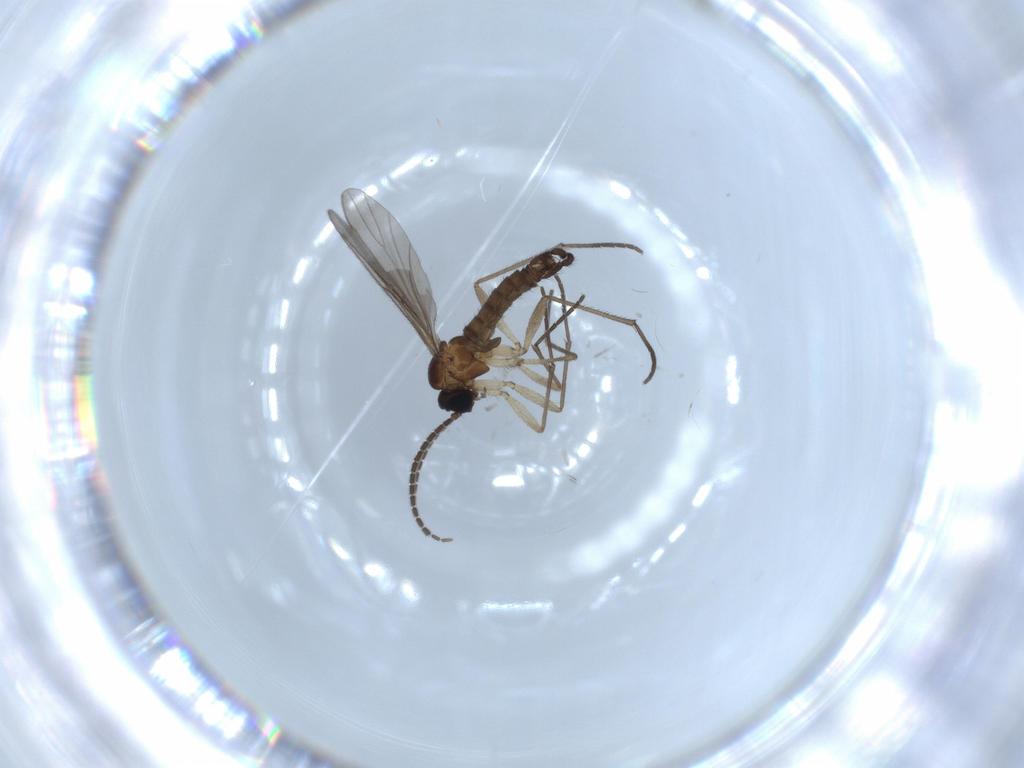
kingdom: Animalia
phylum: Arthropoda
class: Insecta
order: Diptera
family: Sciaridae
